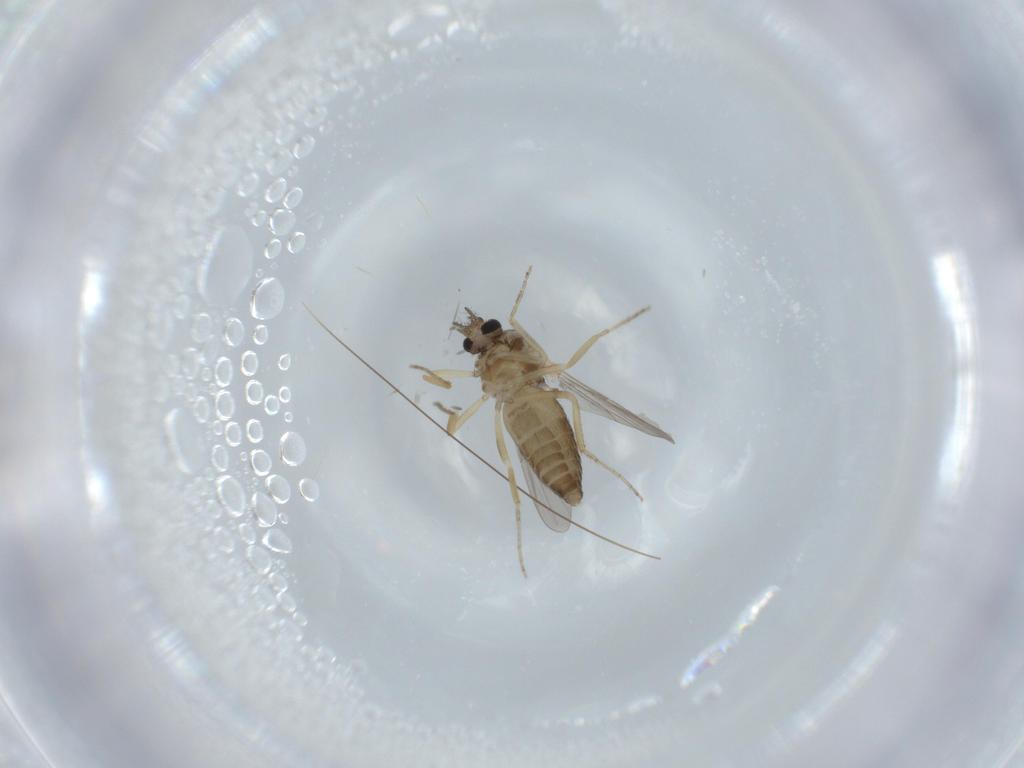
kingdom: Animalia
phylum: Arthropoda
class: Insecta
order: Diptera
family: Ceratopogonidae
